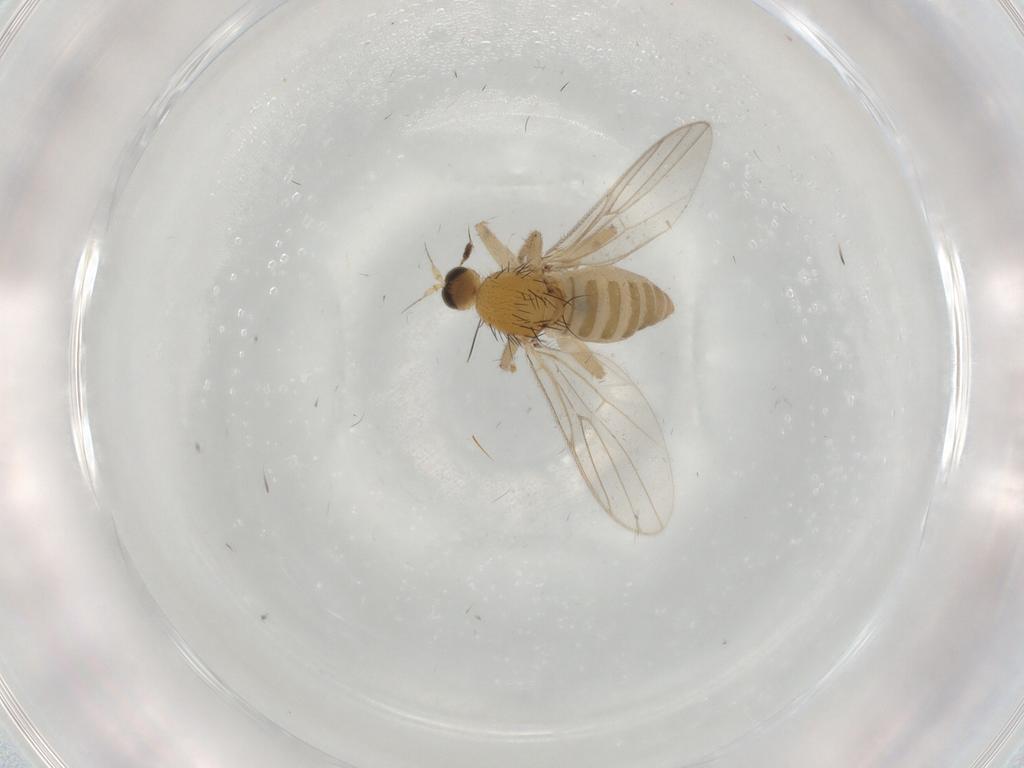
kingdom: Animalia
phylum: Arthropoda
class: Insecta
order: Diptera
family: Hybotidae
